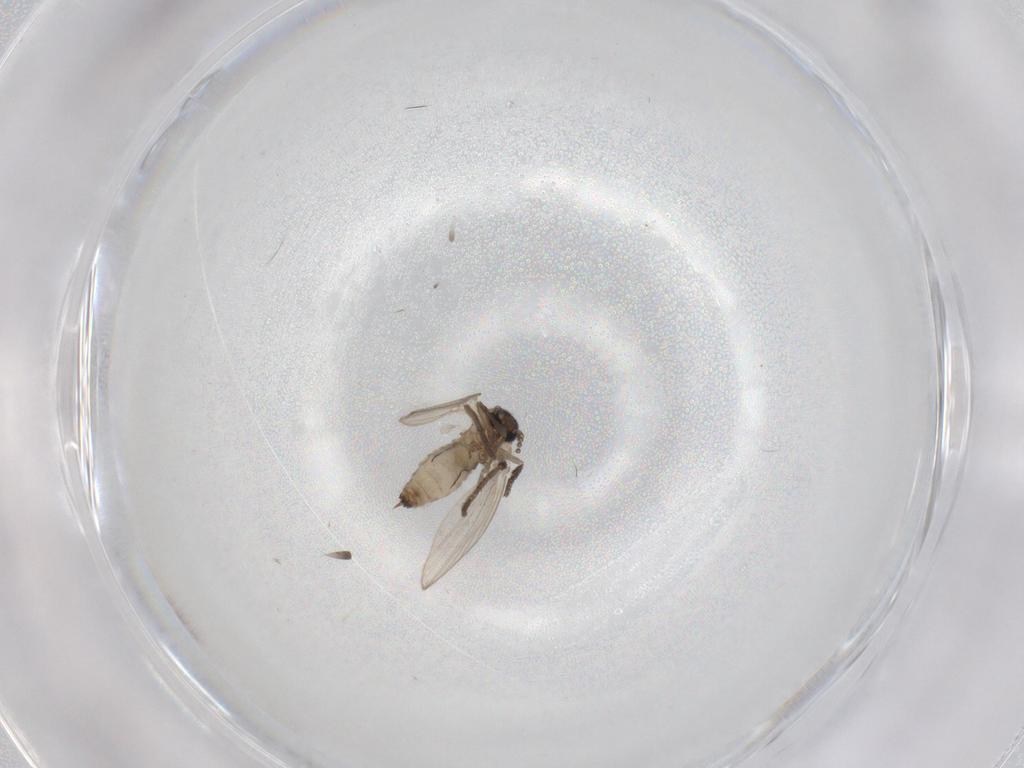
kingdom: Animalia
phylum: Arthropoda
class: Insecta
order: Diptera
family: Psychodidae
